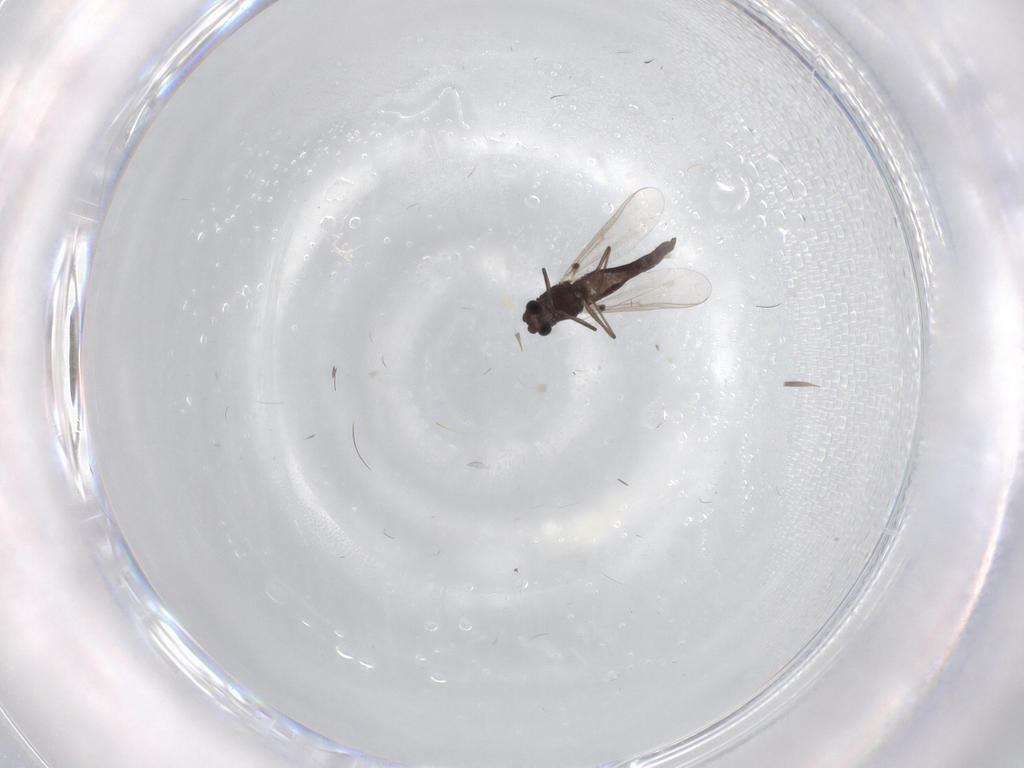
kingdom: Animalia
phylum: Arthropoda
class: Insecta
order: Diptera
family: Chironomidae
